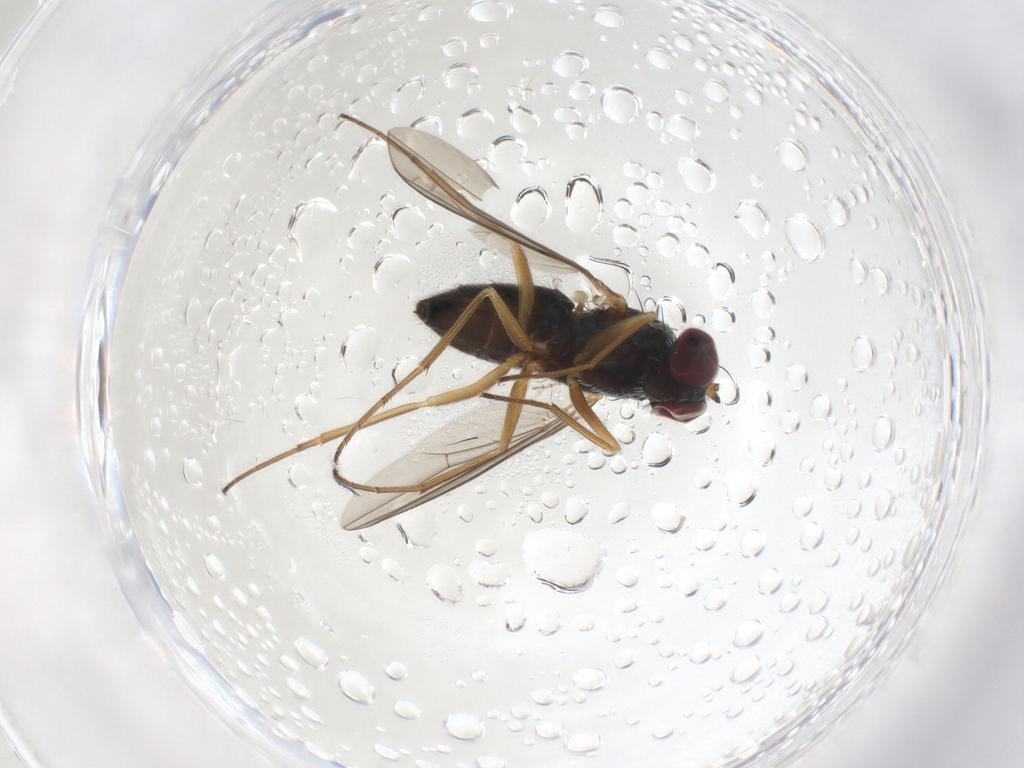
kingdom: Animalia
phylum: Arthropoda
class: Insecta
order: Diptera
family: Dolichopodidae
